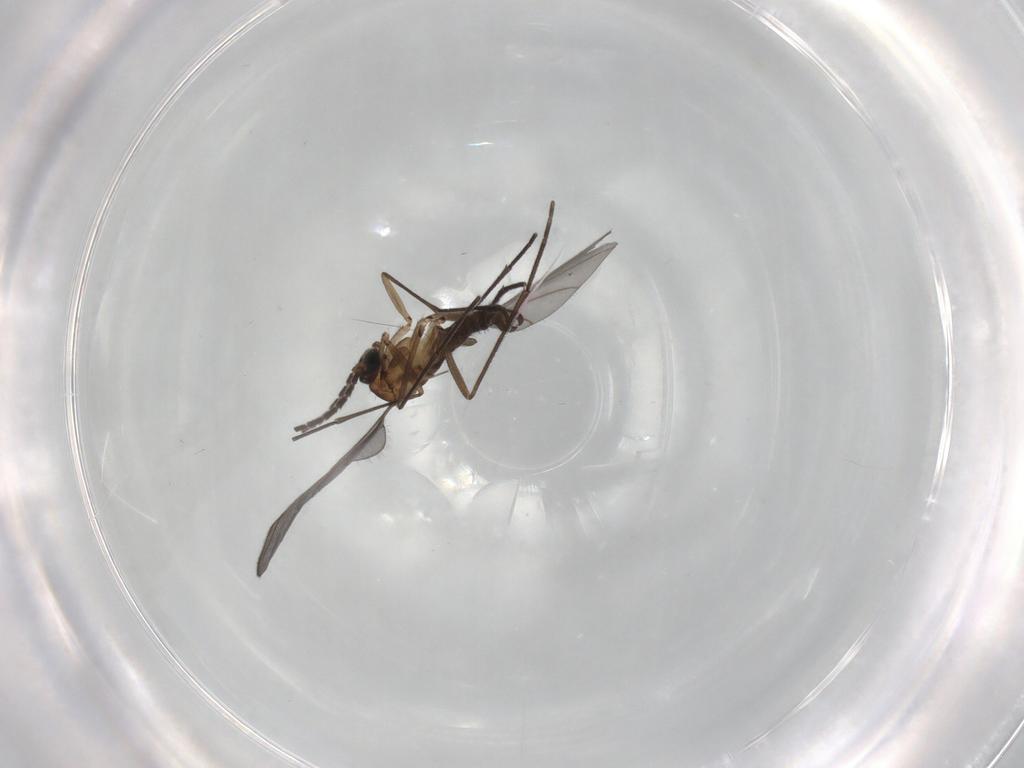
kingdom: Animalia
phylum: Arthropoda
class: Insecta
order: Diptera
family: Sciaridae
